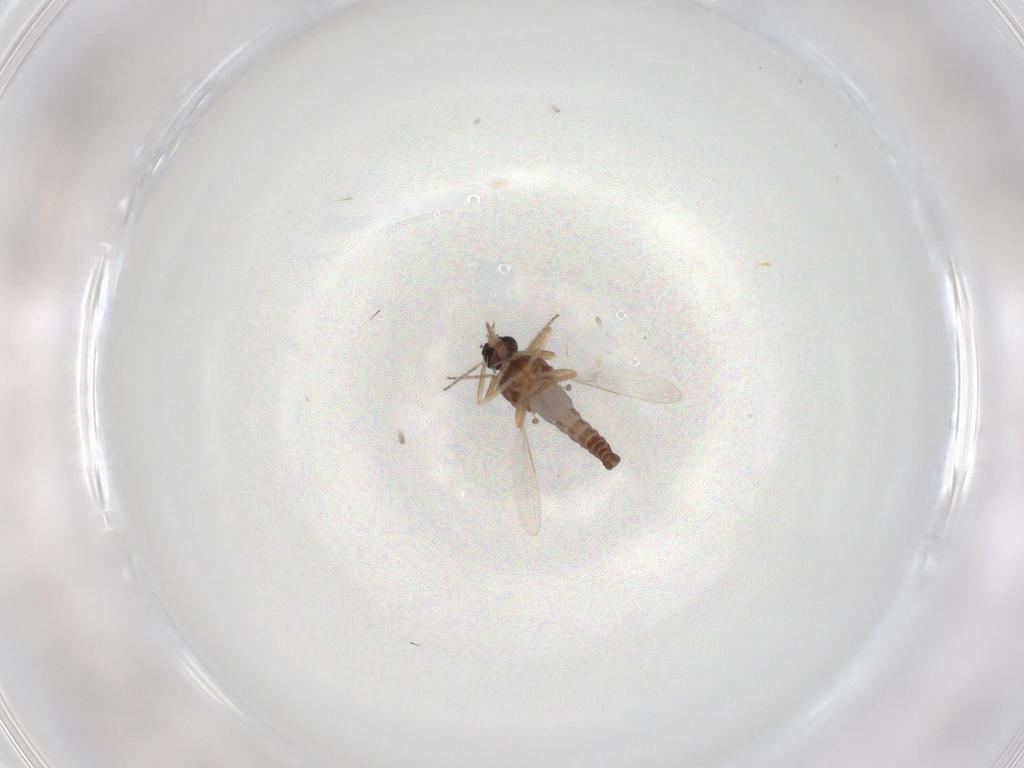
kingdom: Animalia
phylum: Arthropoda
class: Insecta
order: Diptera
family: Ceratopogonidae
